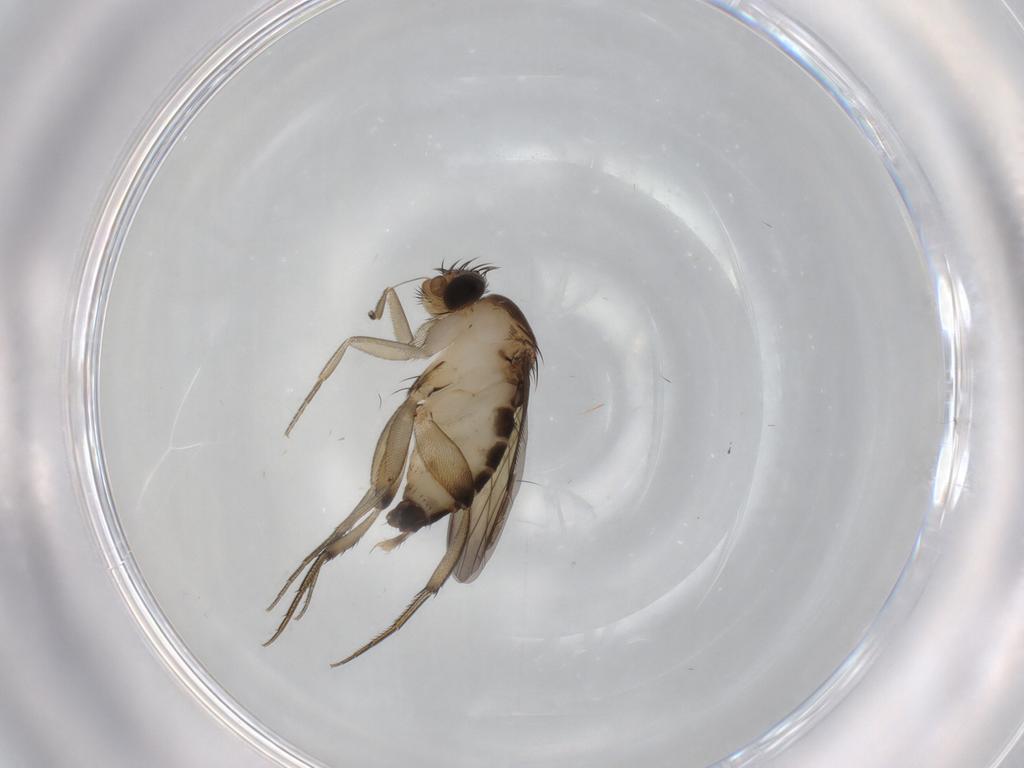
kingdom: Animalia
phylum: Arthropoda
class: Insecta
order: Diptera
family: Phoridae
